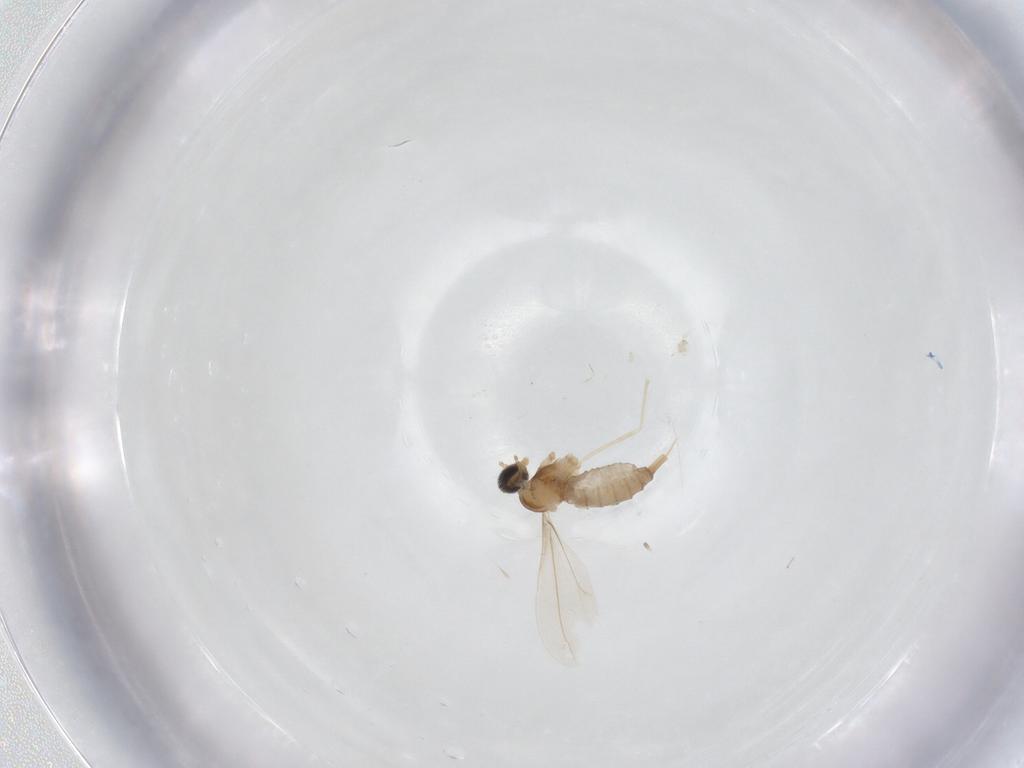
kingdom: Animalia
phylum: Arthropoda
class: Insecta
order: Diptera
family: Cecidomyiidae
